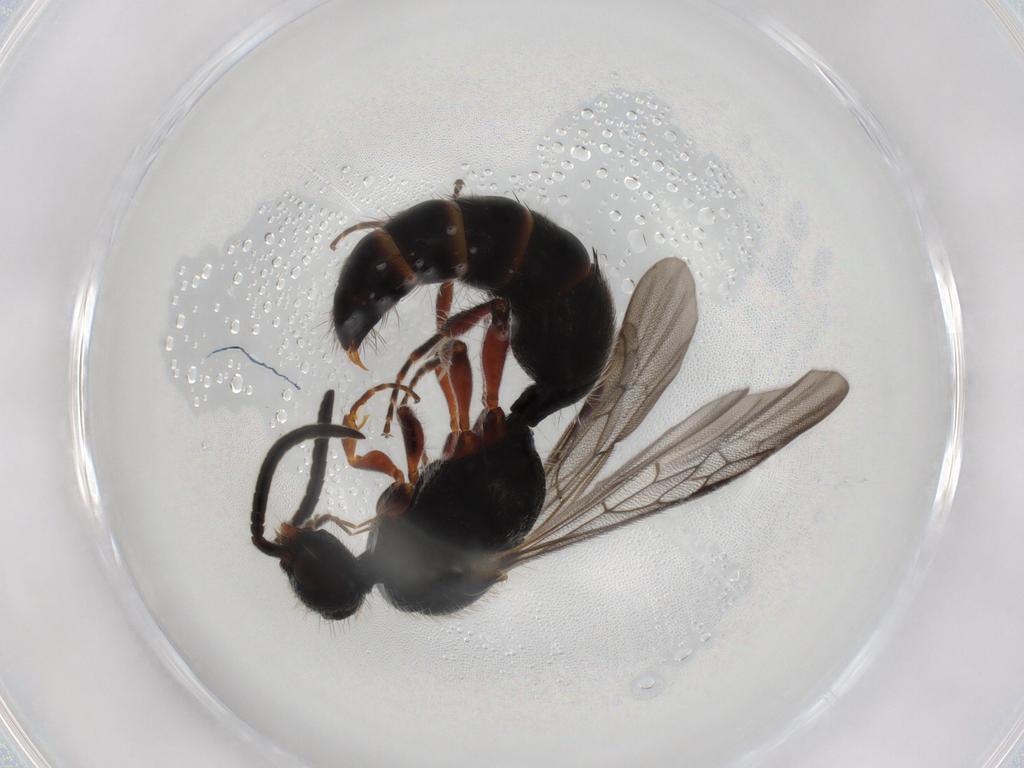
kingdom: Animalia
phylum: Arthropoda
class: Insecta
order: Hymenoptera
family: Mutillidae
